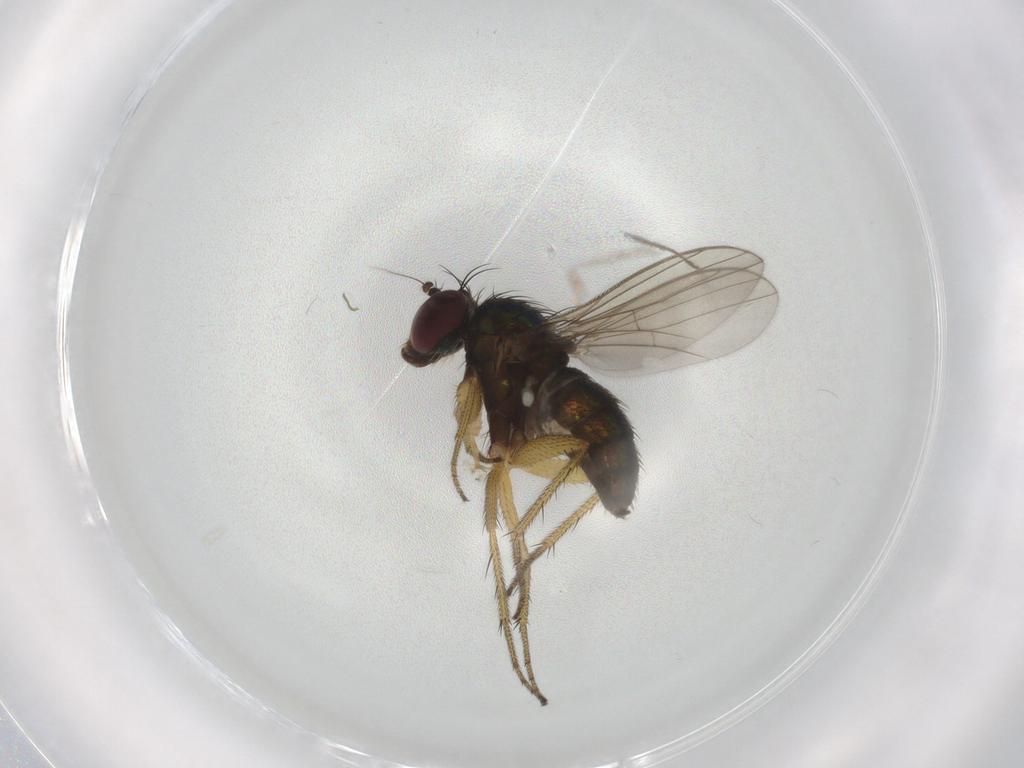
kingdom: Animalia
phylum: Arthropoda
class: Insecta
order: Diptera
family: Dolichopodidae
